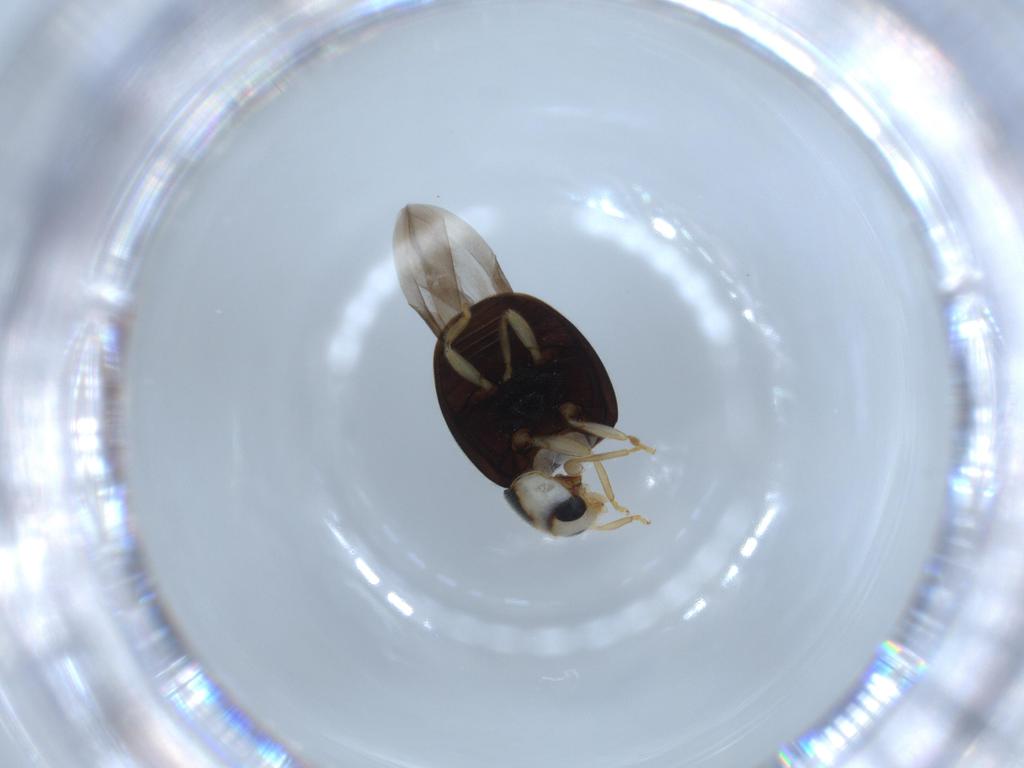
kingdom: Animalia
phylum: Arthropoda
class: Insecta
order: Coleoptera
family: Coccinellidae
